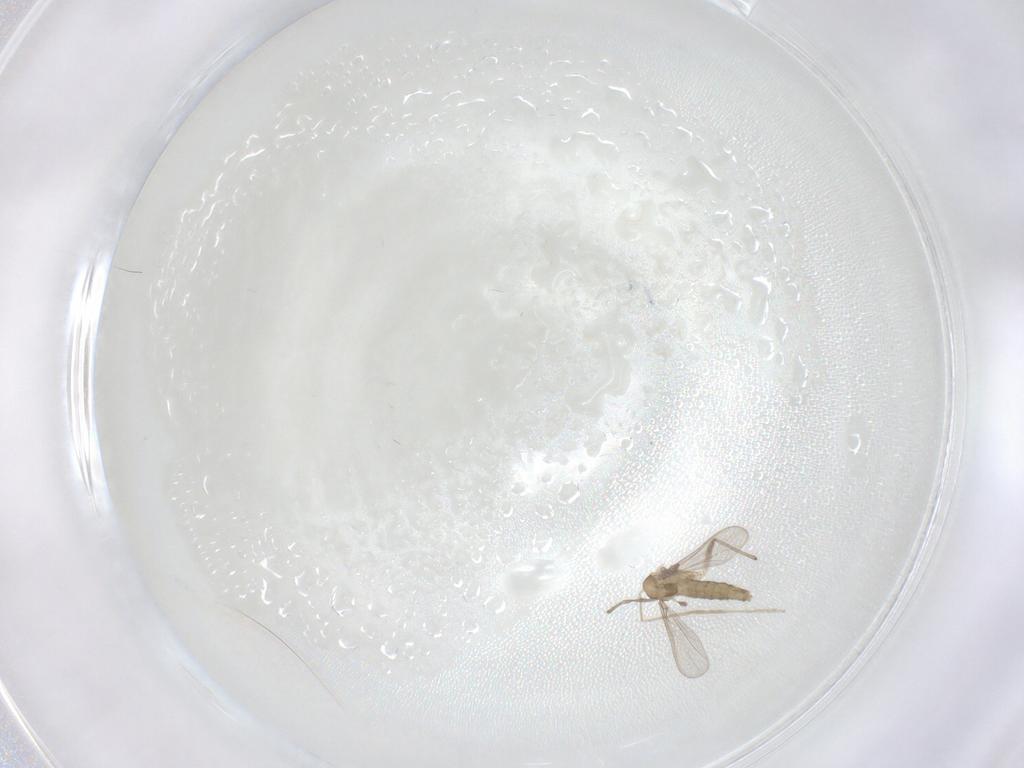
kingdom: Animalia
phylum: Arthropoda
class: Insecta
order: Diptera
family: Chironomidae
